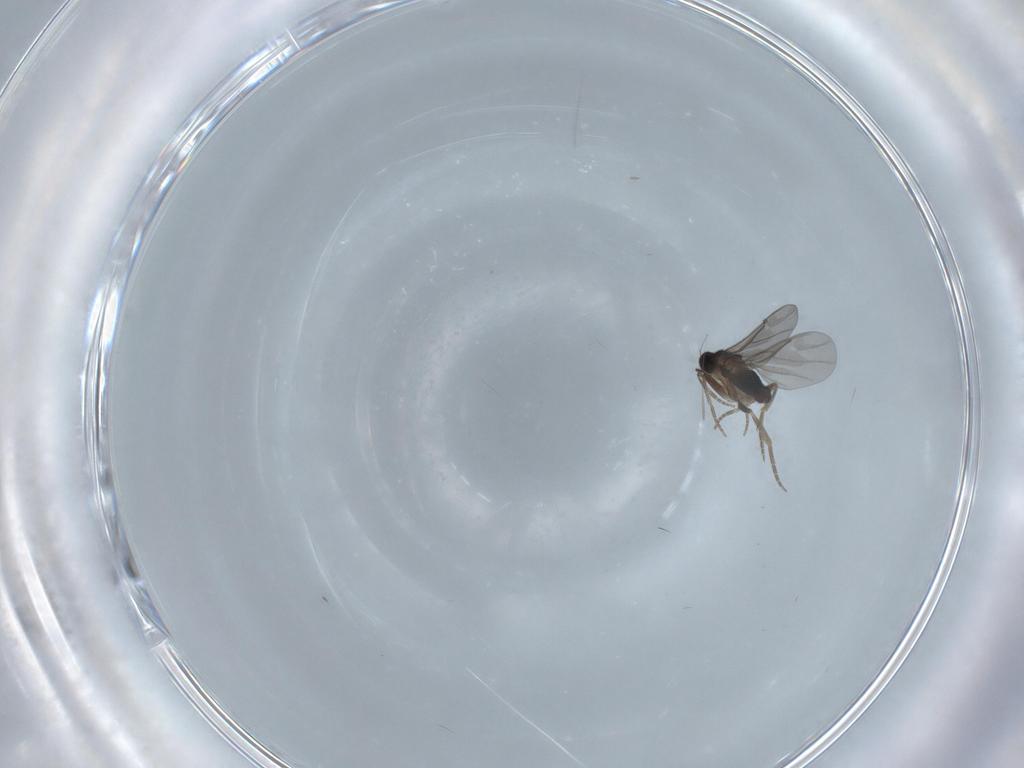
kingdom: Animalia
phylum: Arthropoda
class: Insecta
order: Diptera
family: Chironomidae
